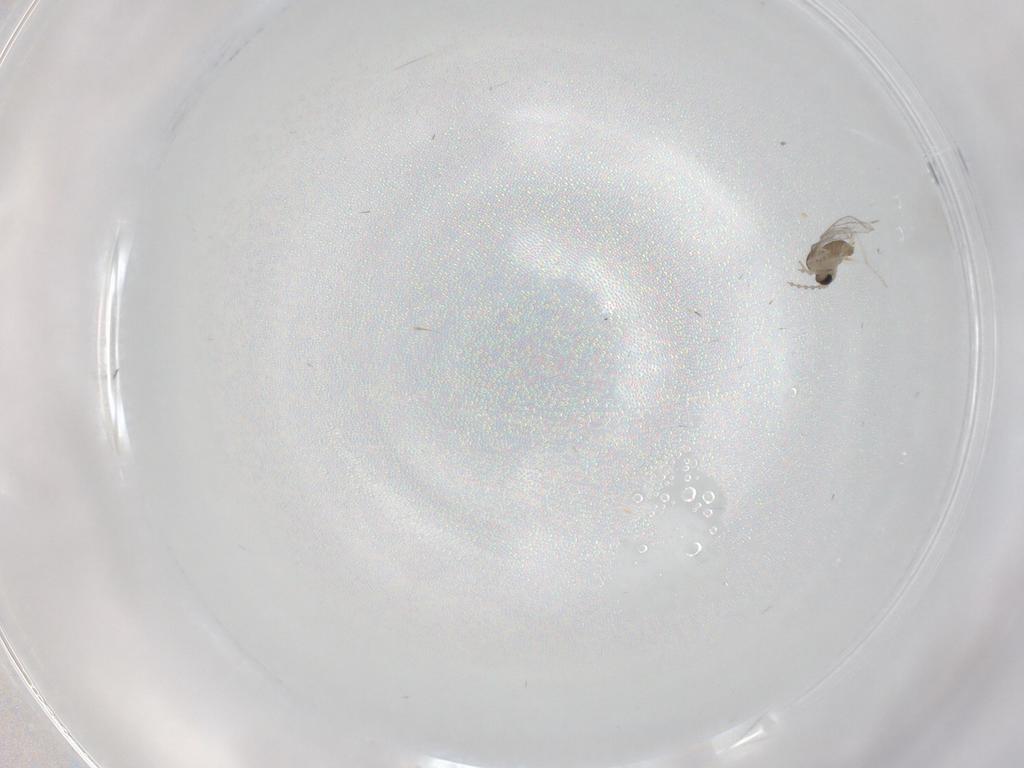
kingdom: Animalia
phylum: Arthropoda
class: Insecta
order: Diptera
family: Cecidomyiidae
